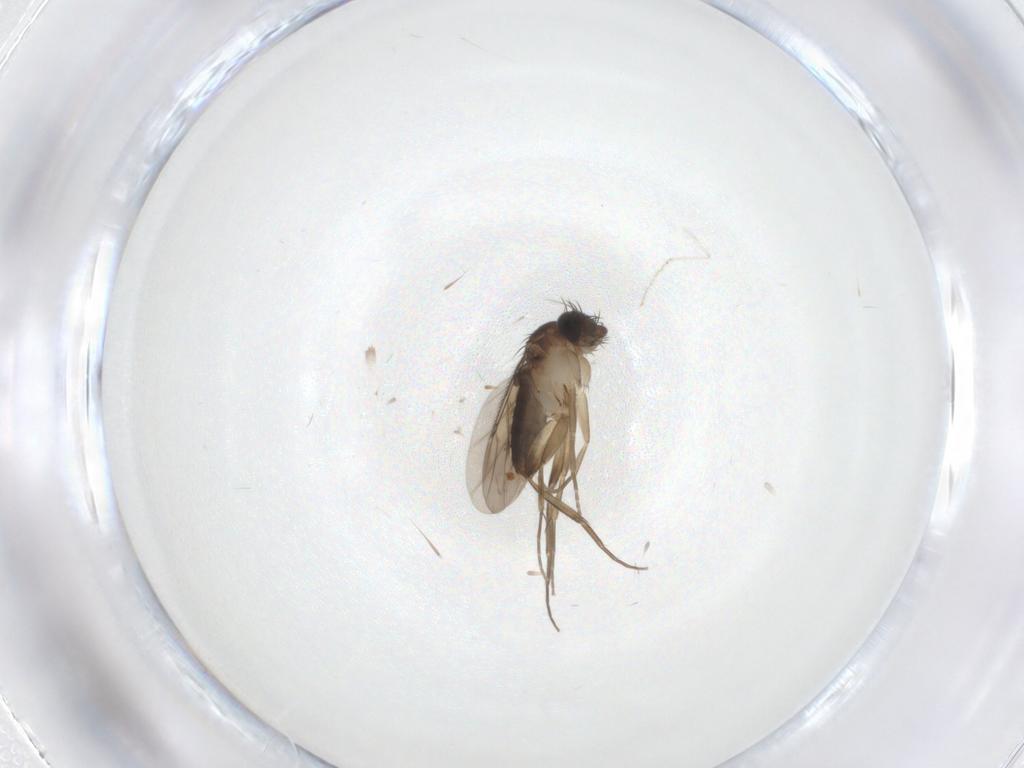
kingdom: Animalia
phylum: Arthropoda
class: Insecta
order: Diptera
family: Phoridae
